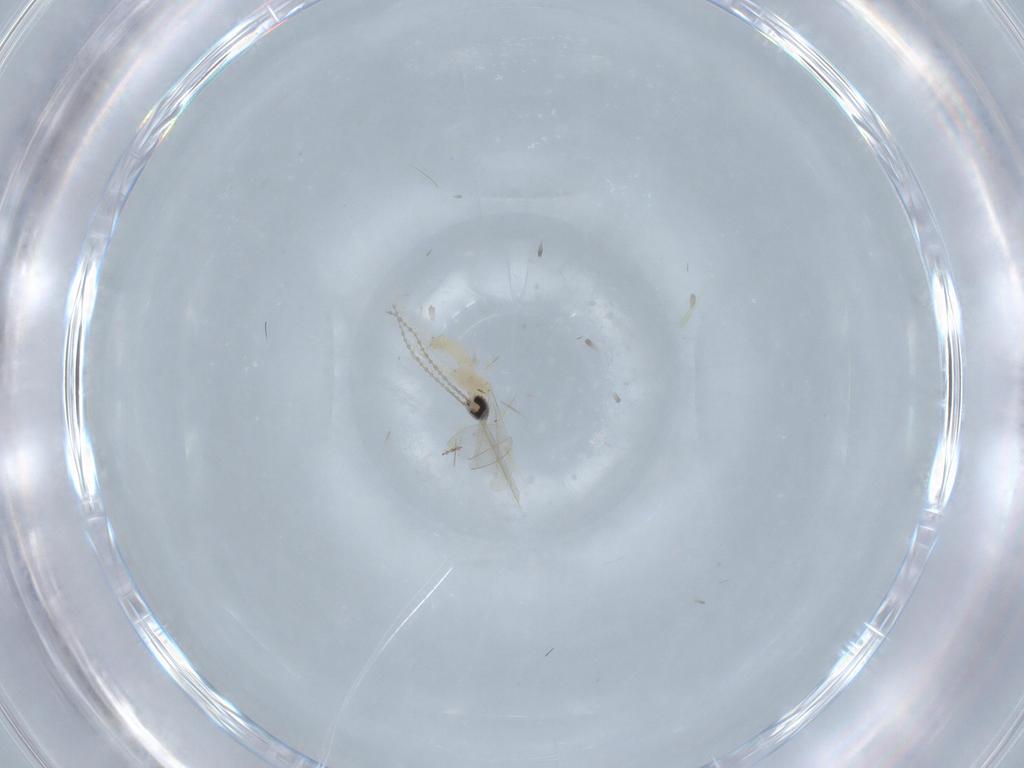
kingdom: Animalia
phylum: Arthropoda
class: Insecta
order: Diptera
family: Cecidomyiidae
